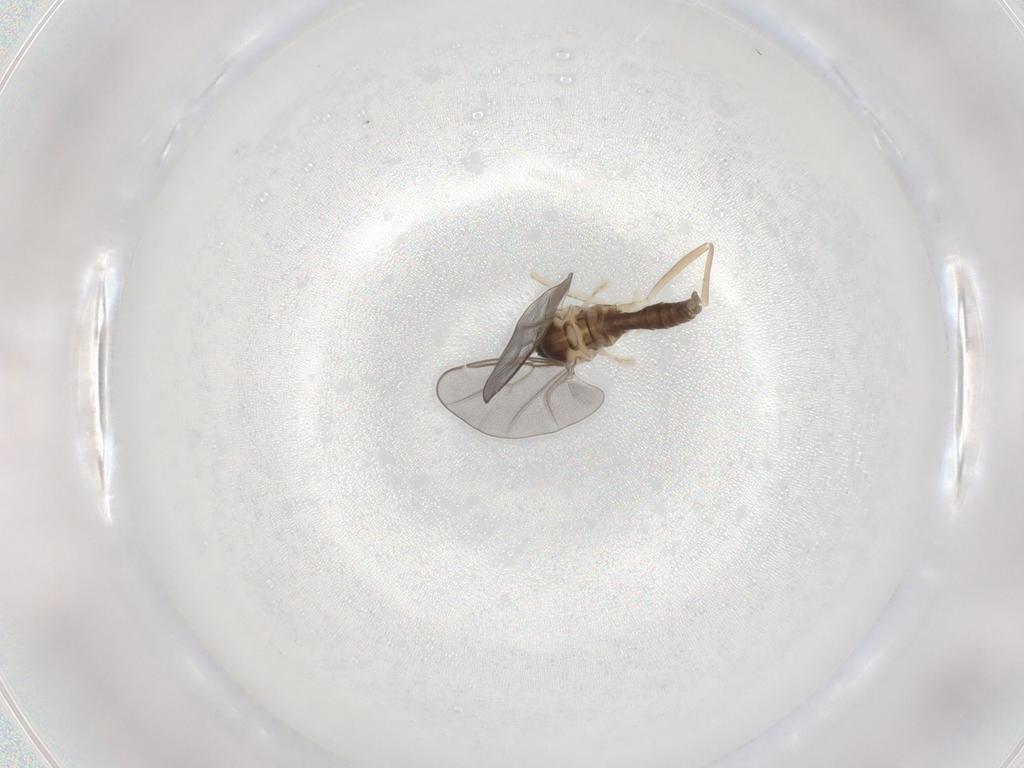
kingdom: Animalia
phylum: Arthropoda
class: Insecta
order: Diptera
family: Cecidomyiidae
